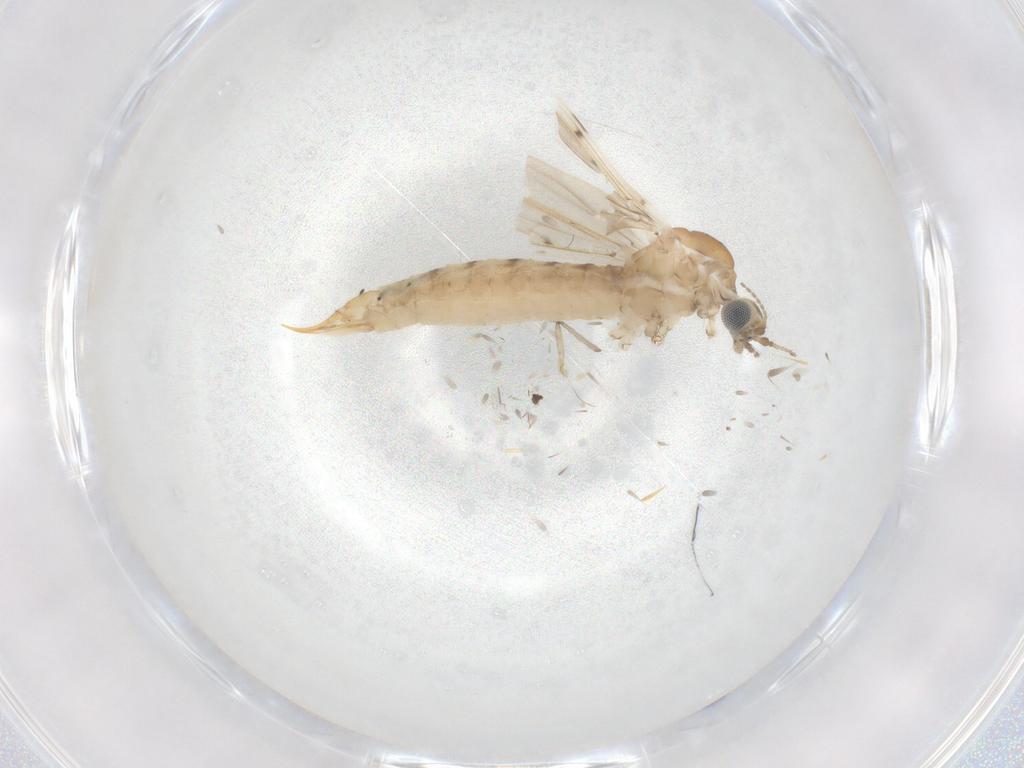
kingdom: Animalia
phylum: Arthropoda
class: Insecta
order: Diptera
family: Limoniidae
